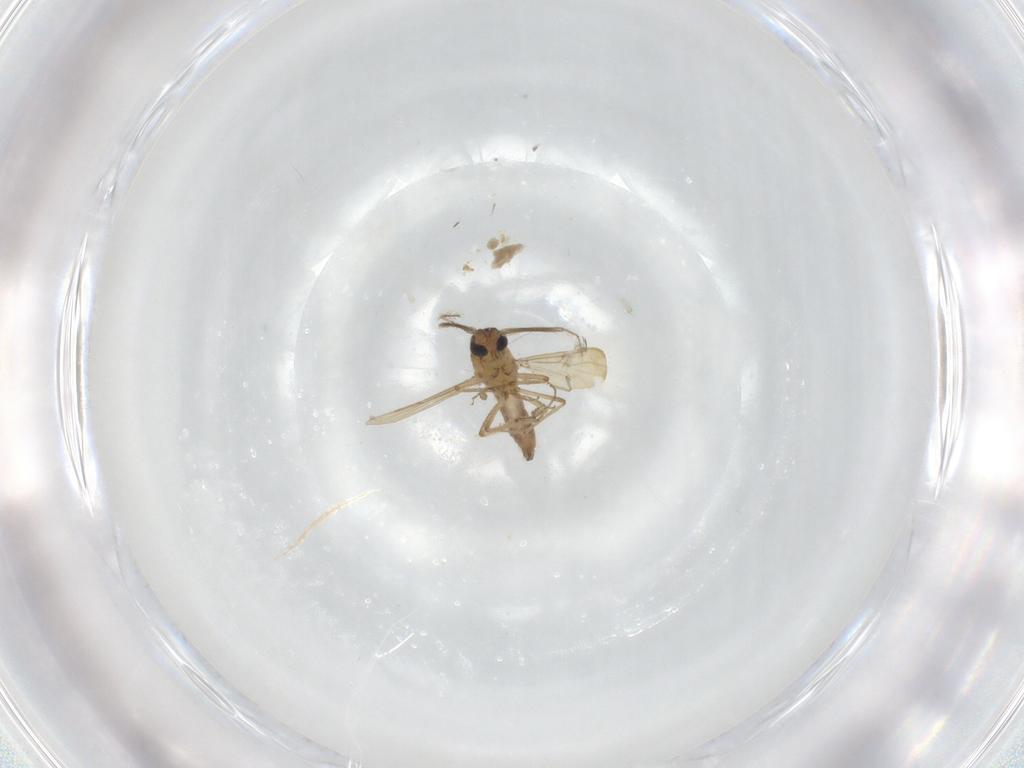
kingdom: Animalia
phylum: Arthropoda
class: Insecta
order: Diptera
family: Ceratopogonidae
